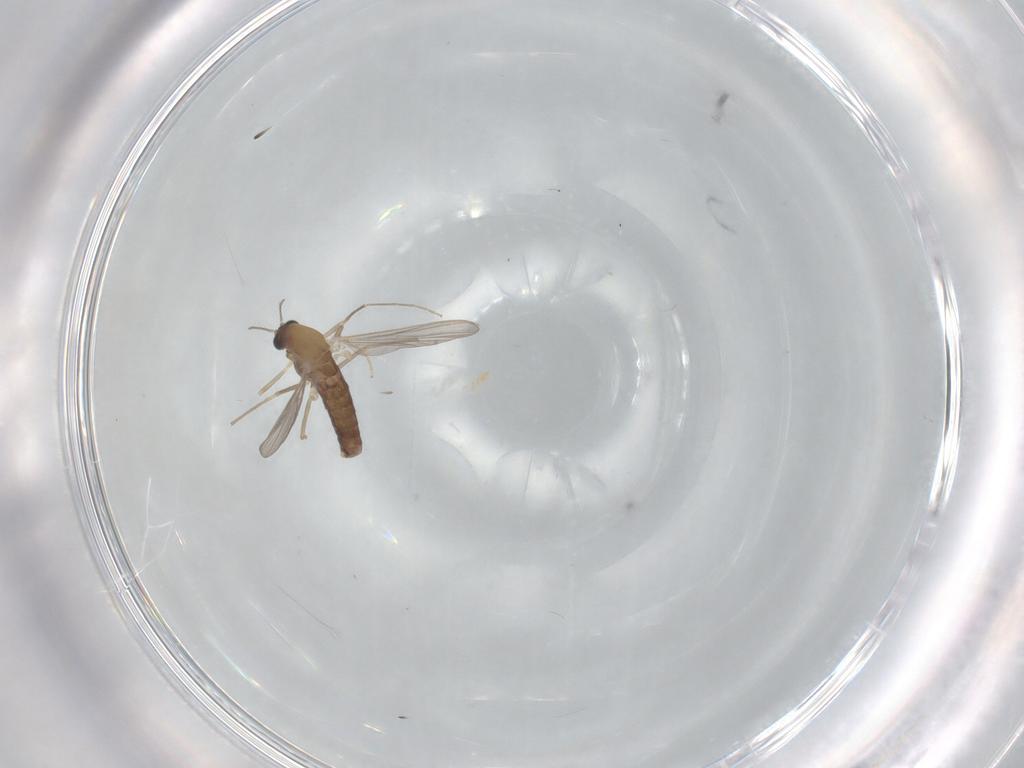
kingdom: Animalia
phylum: Arthropoda
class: Insecta
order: Diptera
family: Chironomidae
